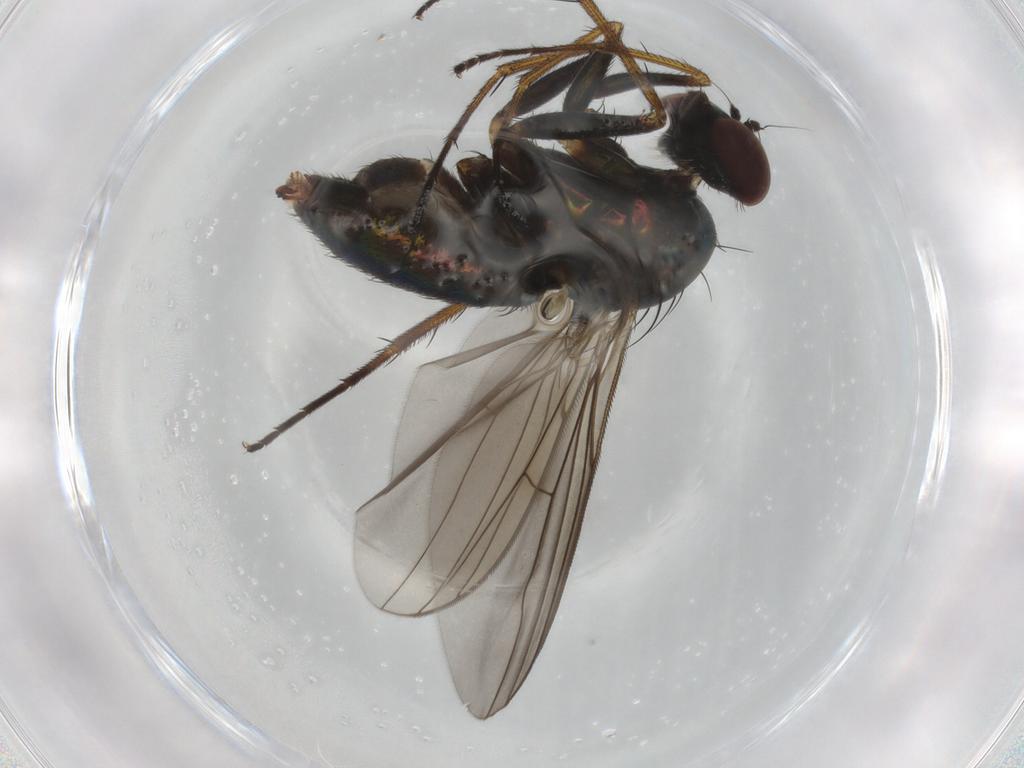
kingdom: Animalia
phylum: Arthropoda
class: Insecta
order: Diptera
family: Dolichopodidae
